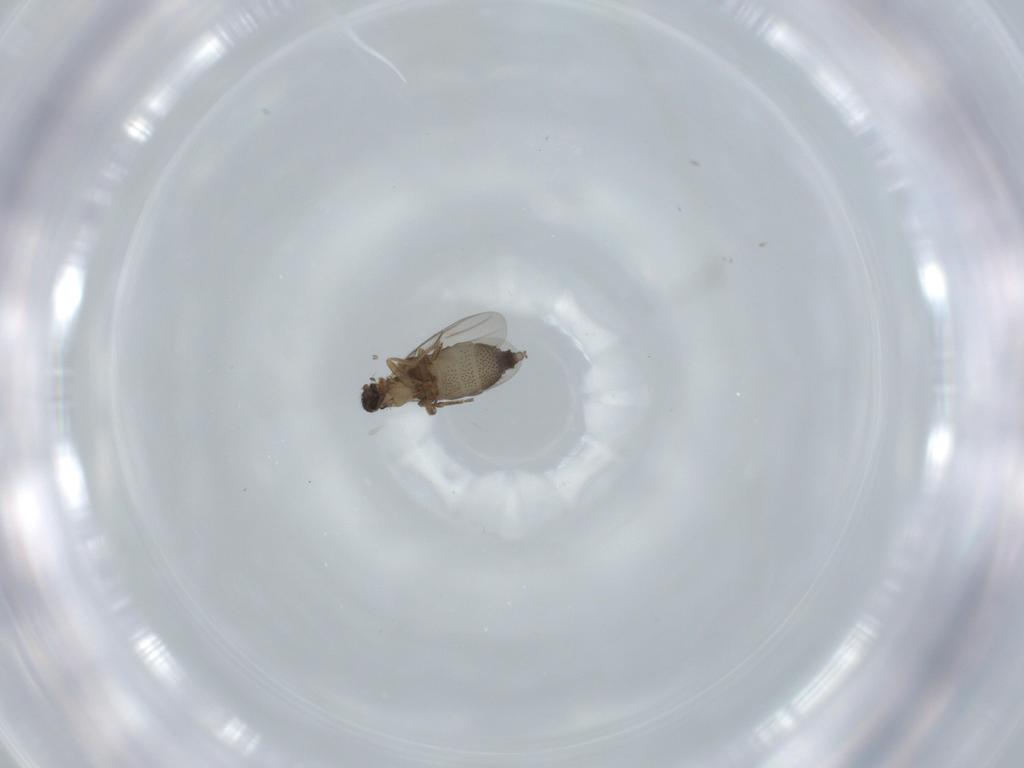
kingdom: Animalia
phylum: Arthropoda
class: Insecta
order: Diptera
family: Phoridae
